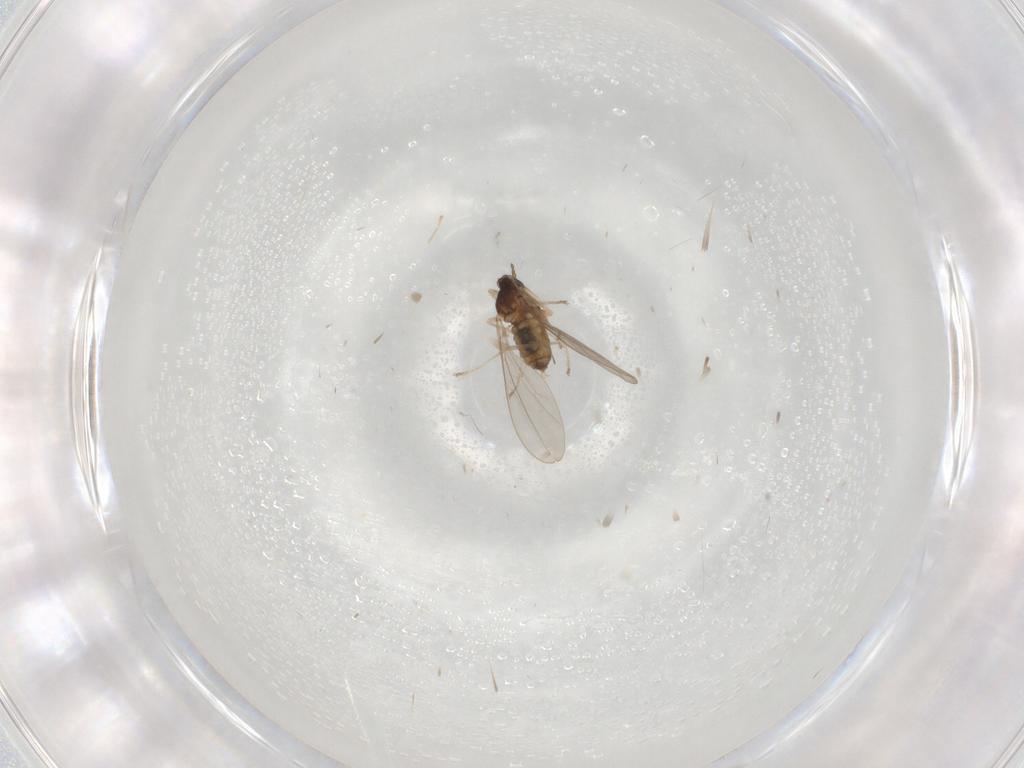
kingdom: Animalia
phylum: Arthropoda
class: Insecta
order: Diptera
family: Cecidomyiidae
